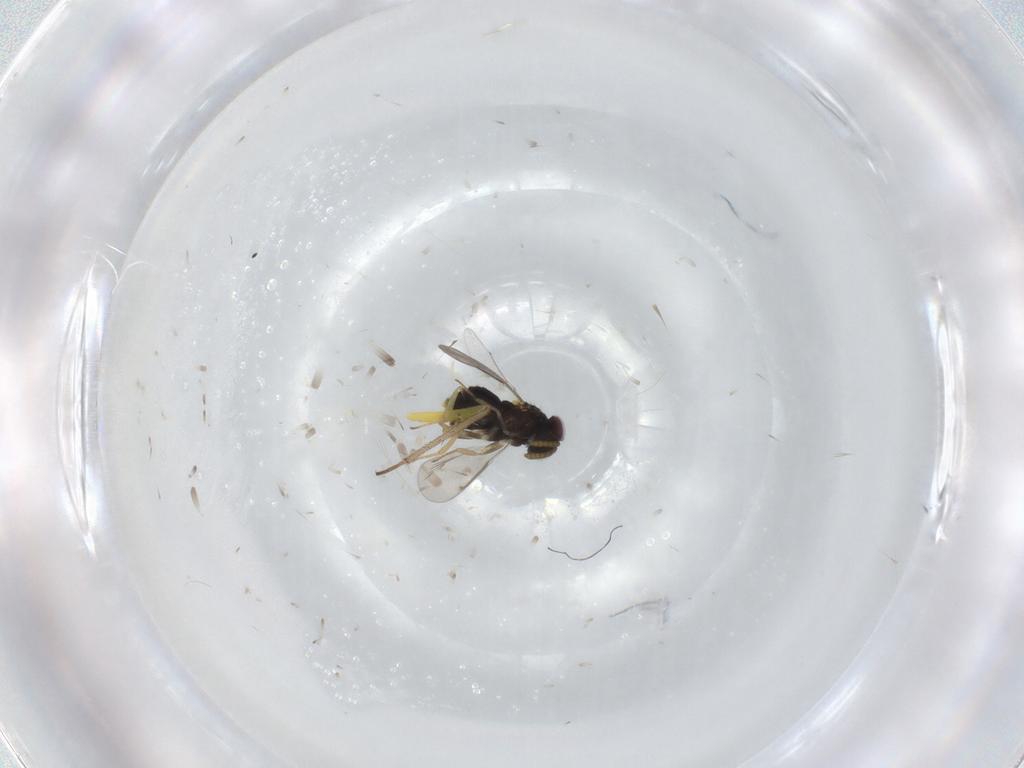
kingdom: Animalia
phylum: Arthropoda
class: Insecta
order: Hymenoptera
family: Aphelinidae
